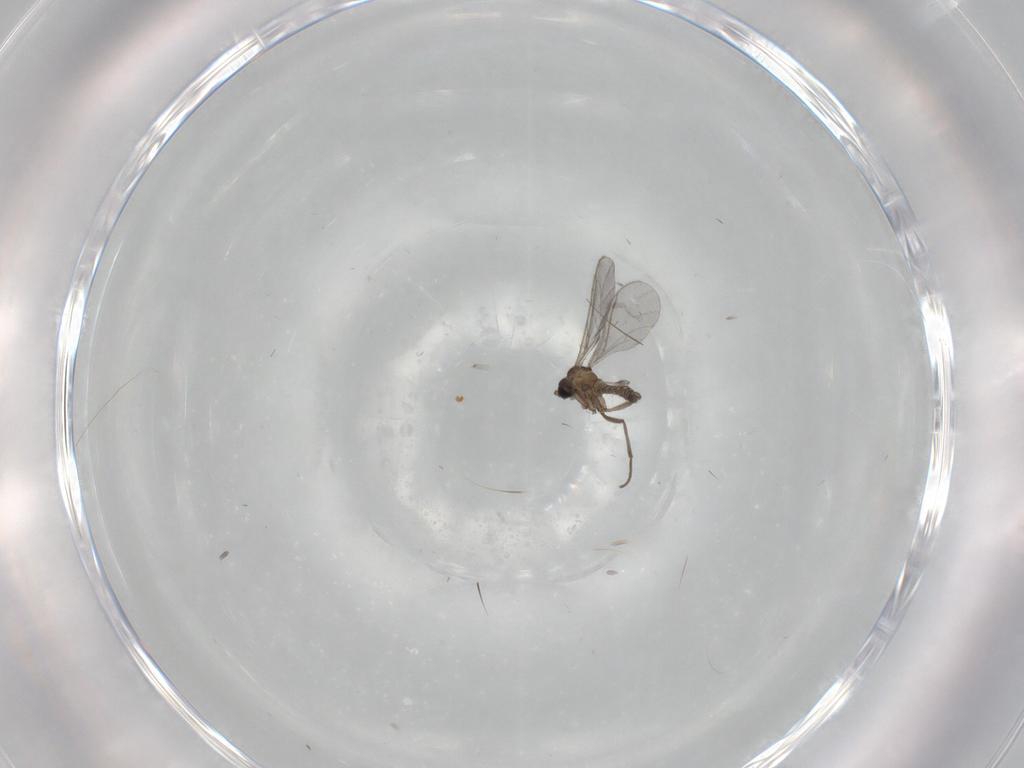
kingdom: Animalia
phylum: Arthropoda
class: Insecta
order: Diptera
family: Sciaridae
